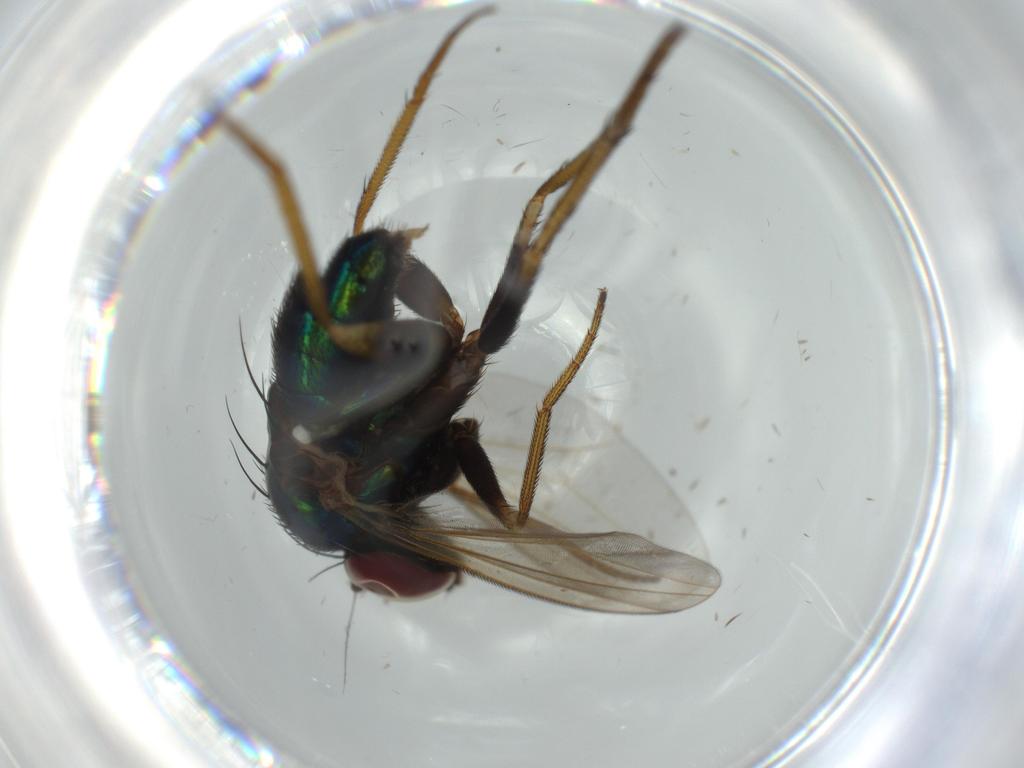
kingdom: Animalia
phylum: Arthropoda
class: Insecta
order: Diptera
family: Dolichopodidae
